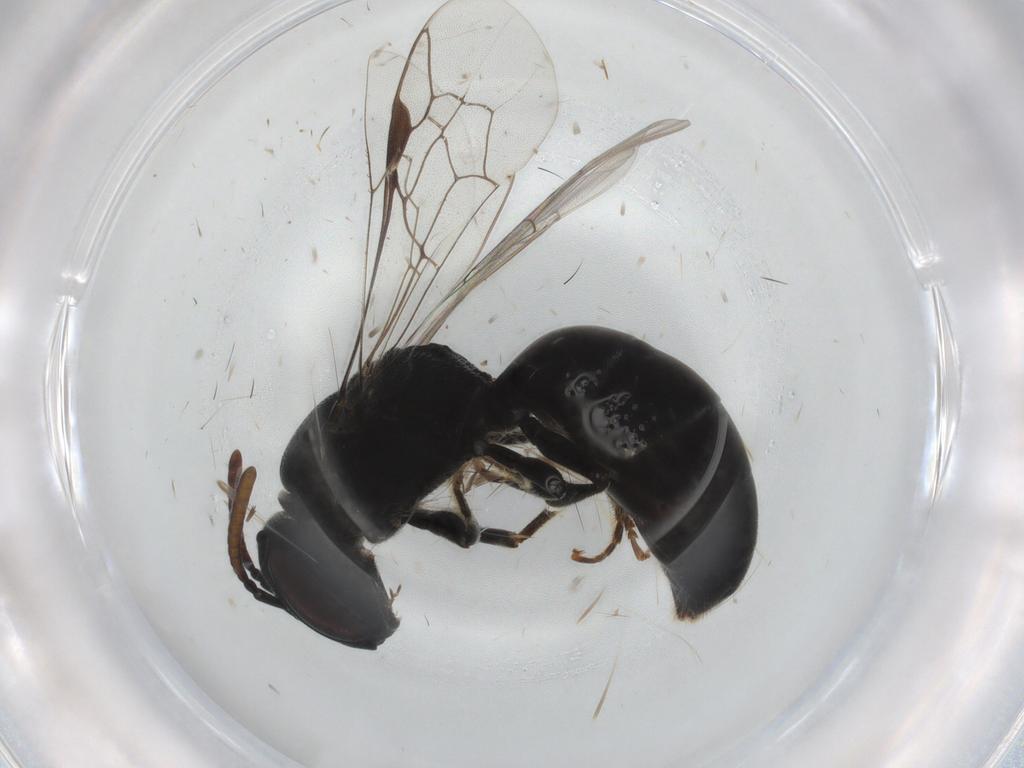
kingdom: Animalia
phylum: Arthropoda
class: Insecta
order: Hymenoptera
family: Colletidae
